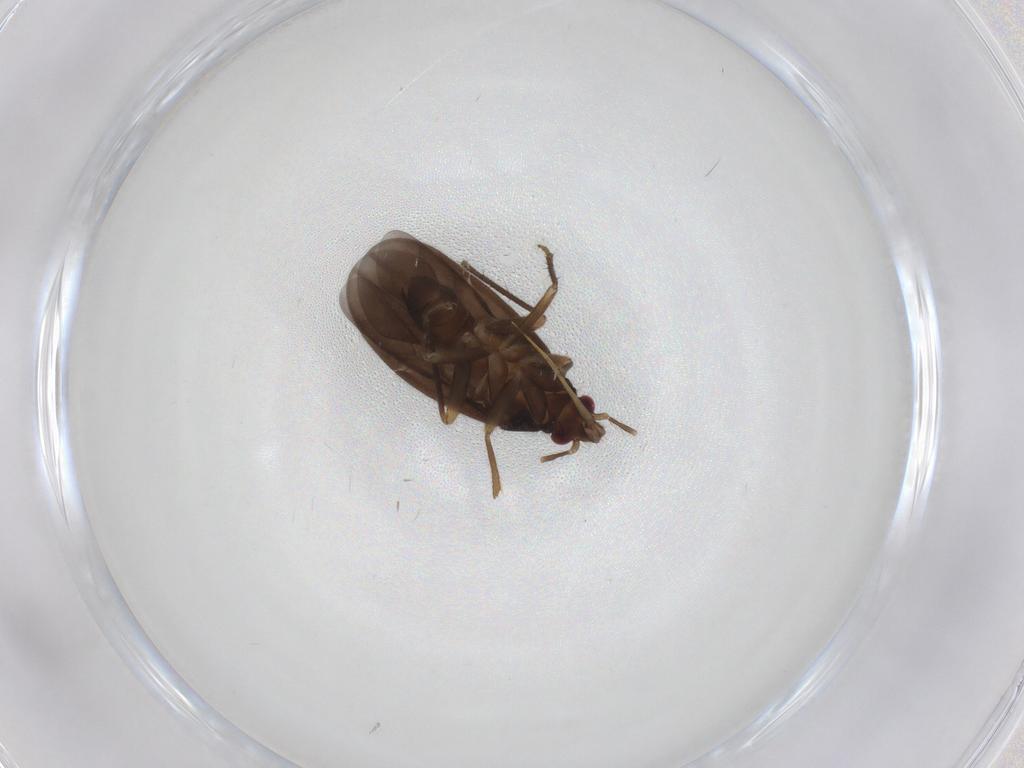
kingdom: Animalia
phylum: Arthropoda
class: Insecta
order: Hemiptera
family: Ceratocombidae
